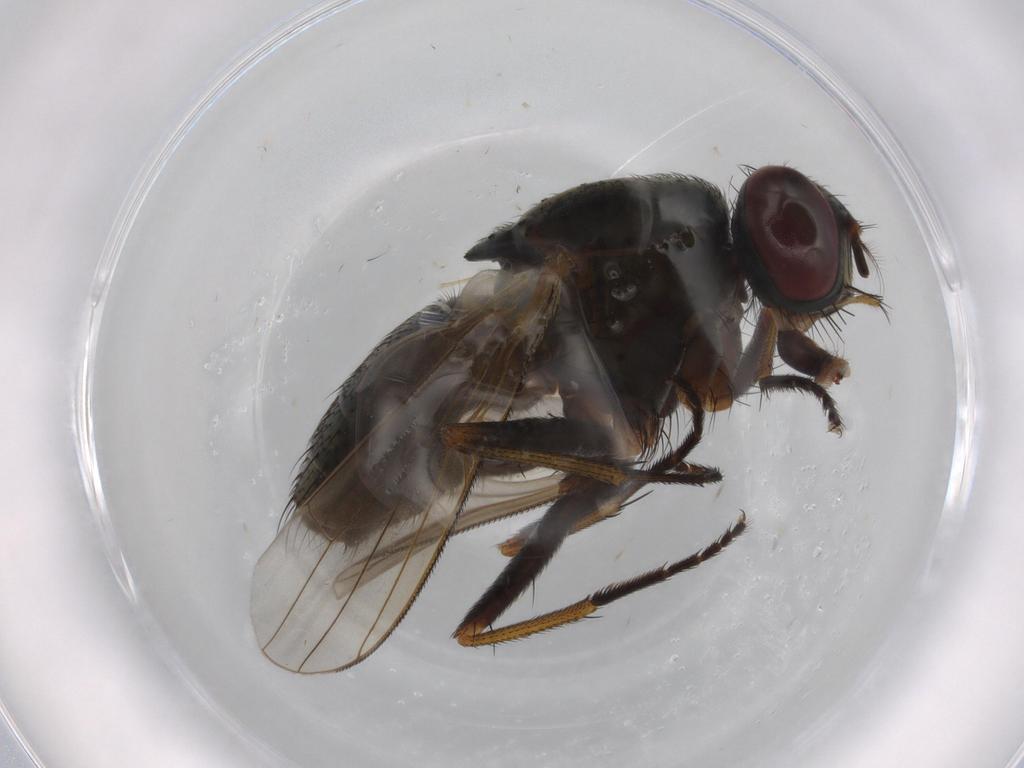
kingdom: Animalia
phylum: Arthropoda
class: Insecta
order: Diptera
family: Muscidae
